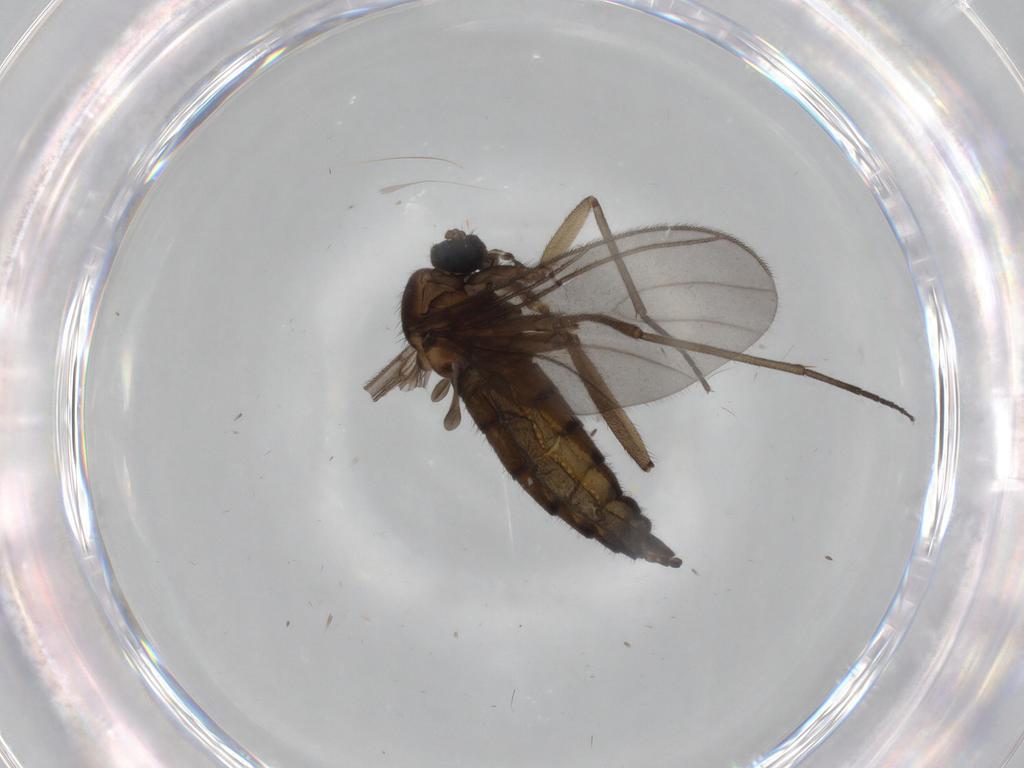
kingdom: Animalia
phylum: Arthropoda
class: Insecta
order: Diptera
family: Sciaridae
